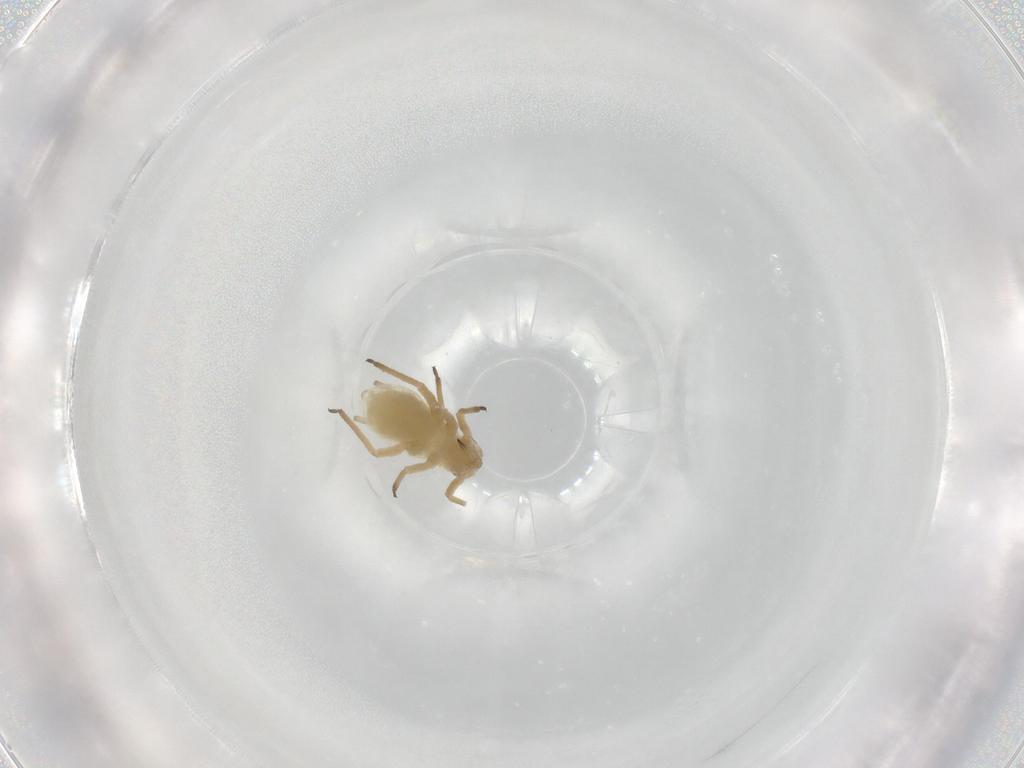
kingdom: Animalia
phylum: Arthropoda
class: Insecta
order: Hemiptera
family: Aphididae
